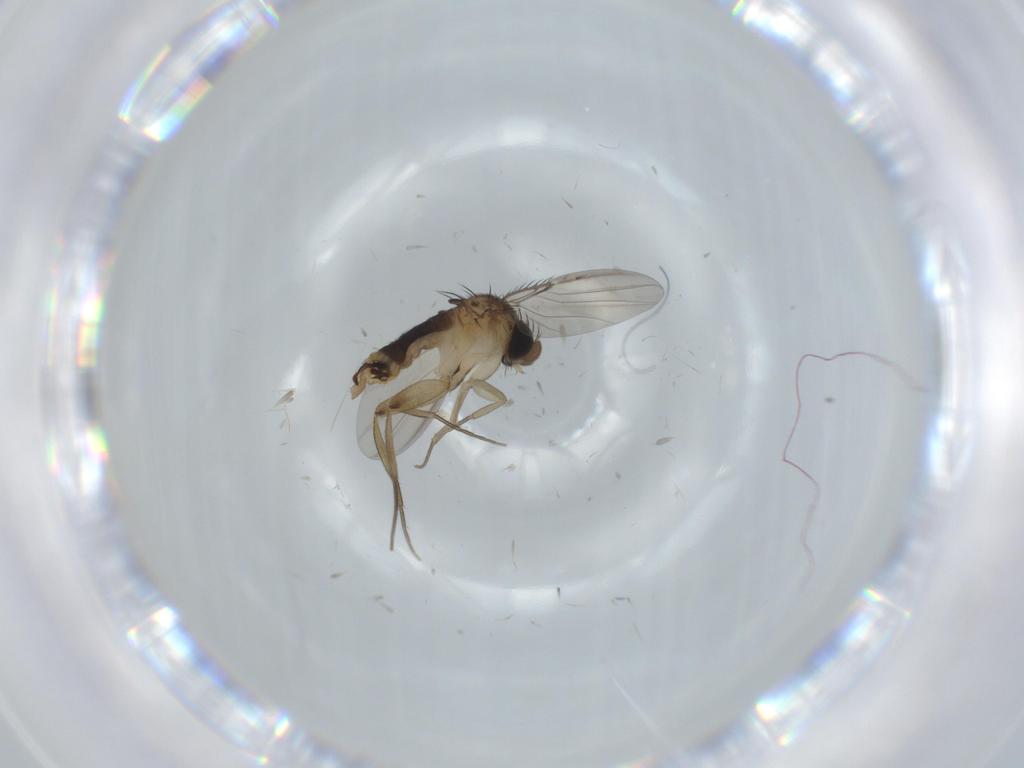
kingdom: Animalia
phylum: Arthropoda
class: Insecta
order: Diptera
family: Phoridae
